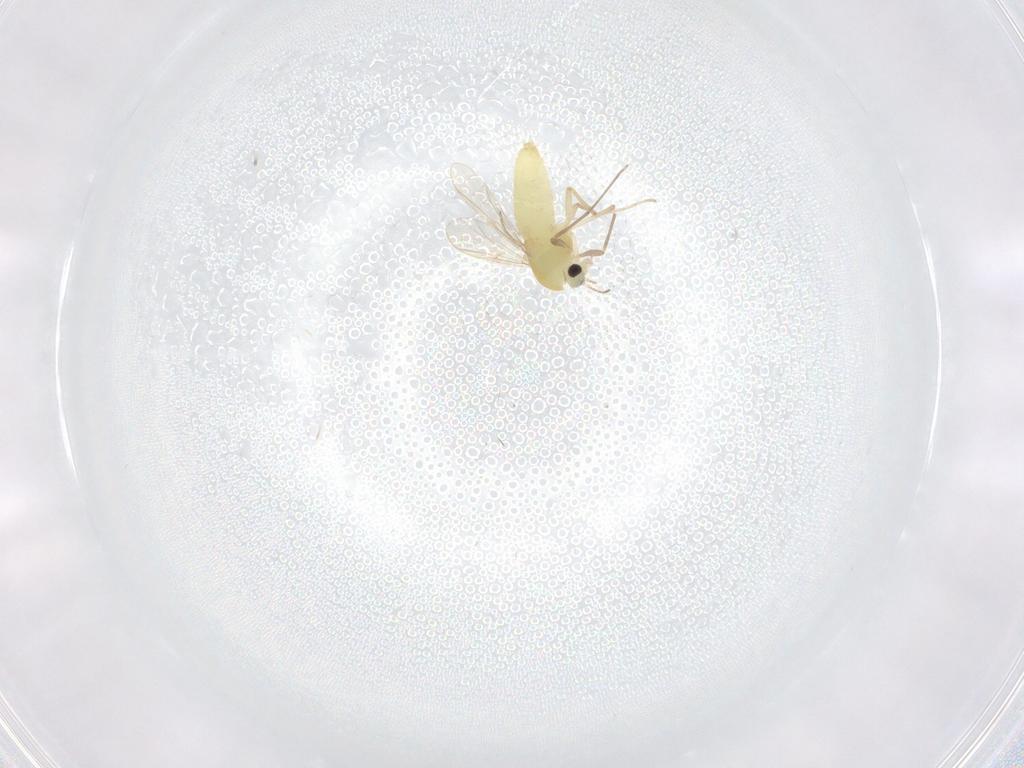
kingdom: Animalia
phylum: Arthropoda
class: Insecta
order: Diptera
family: Chironomidae
